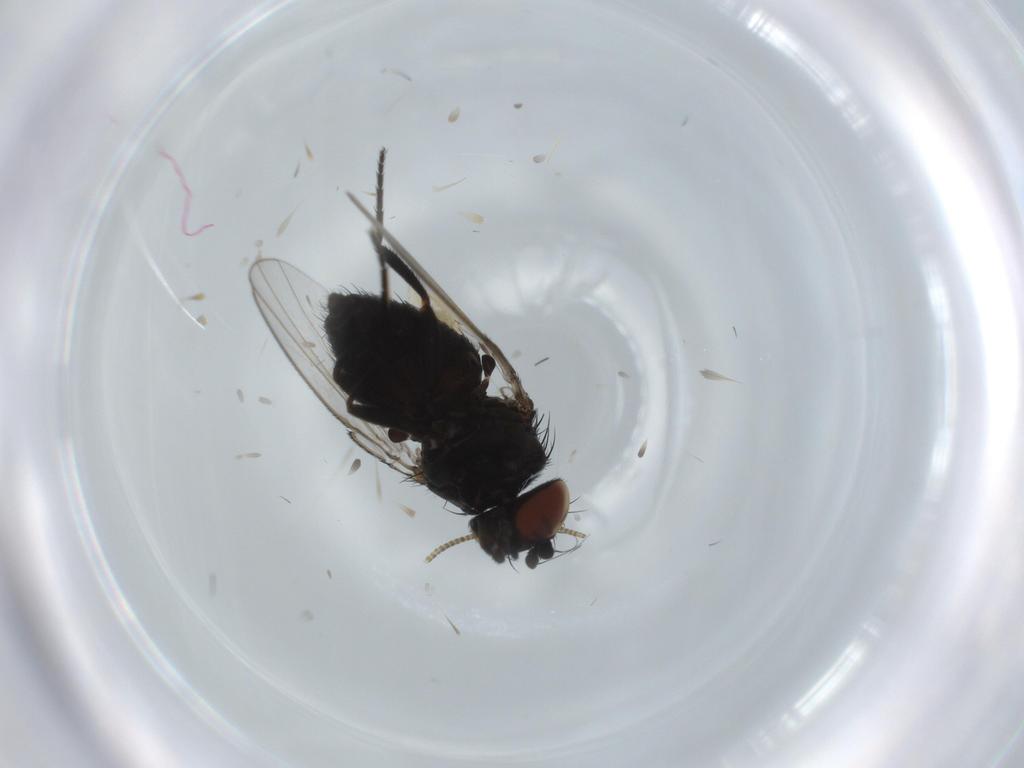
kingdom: Animalia
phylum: Arthropoda
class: Insecta
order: Diptera
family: Milichiidae
